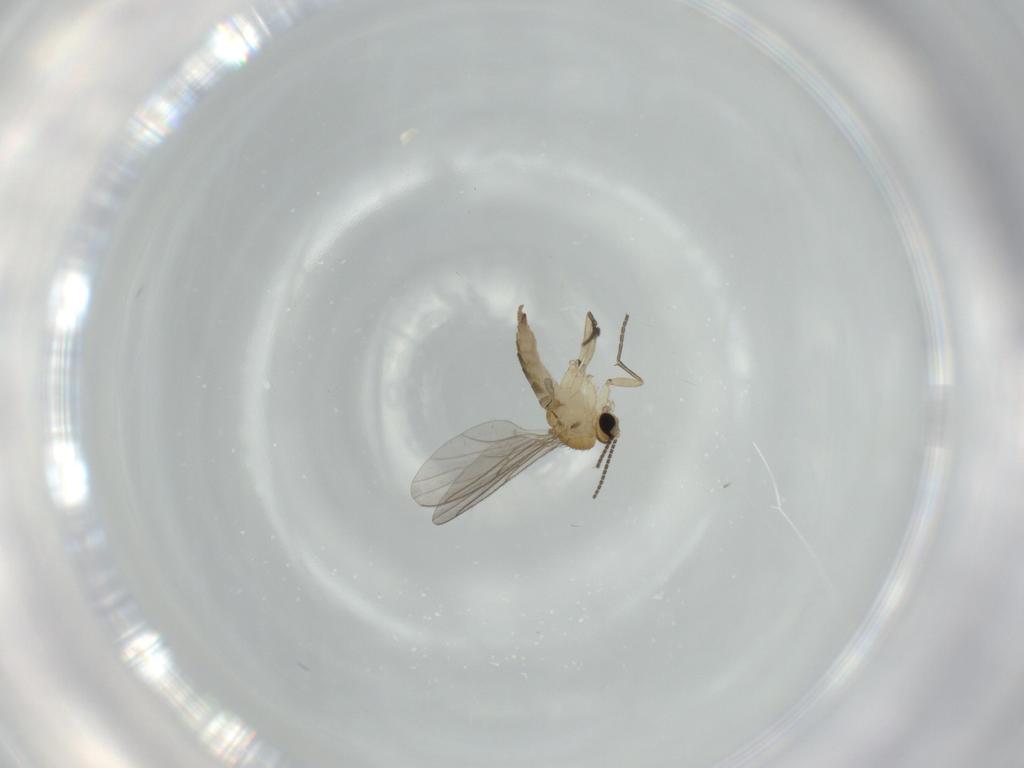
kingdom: Animalia
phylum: Arthropoda
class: Insecta
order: Diptera
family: Sciaridae
